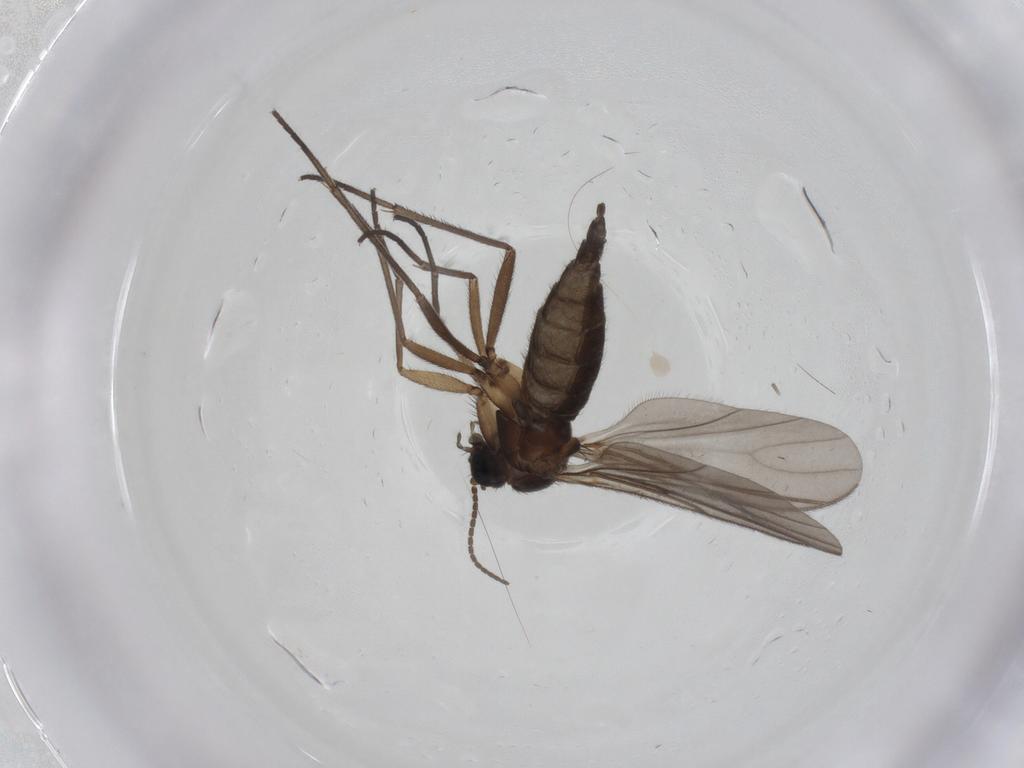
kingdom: Animalia
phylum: Arthropoda
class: Insecta
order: Diptera
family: Sciaridae
